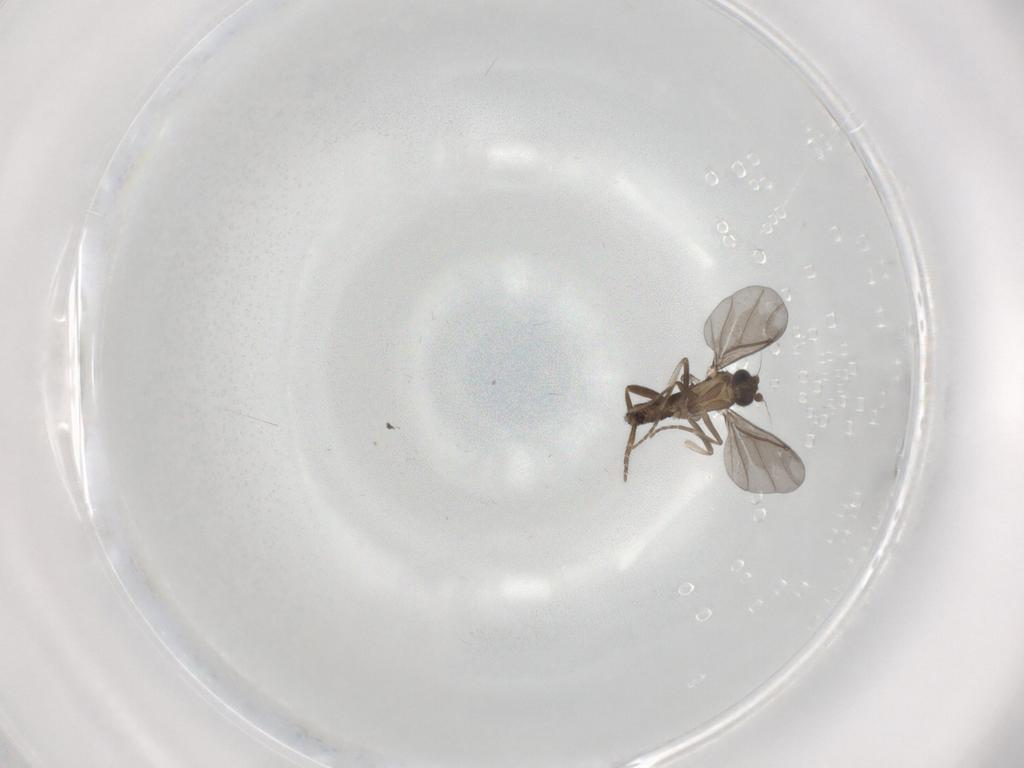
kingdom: Animalia
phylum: Arthropoda
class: Insecta
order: Diptera
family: Phoridae
